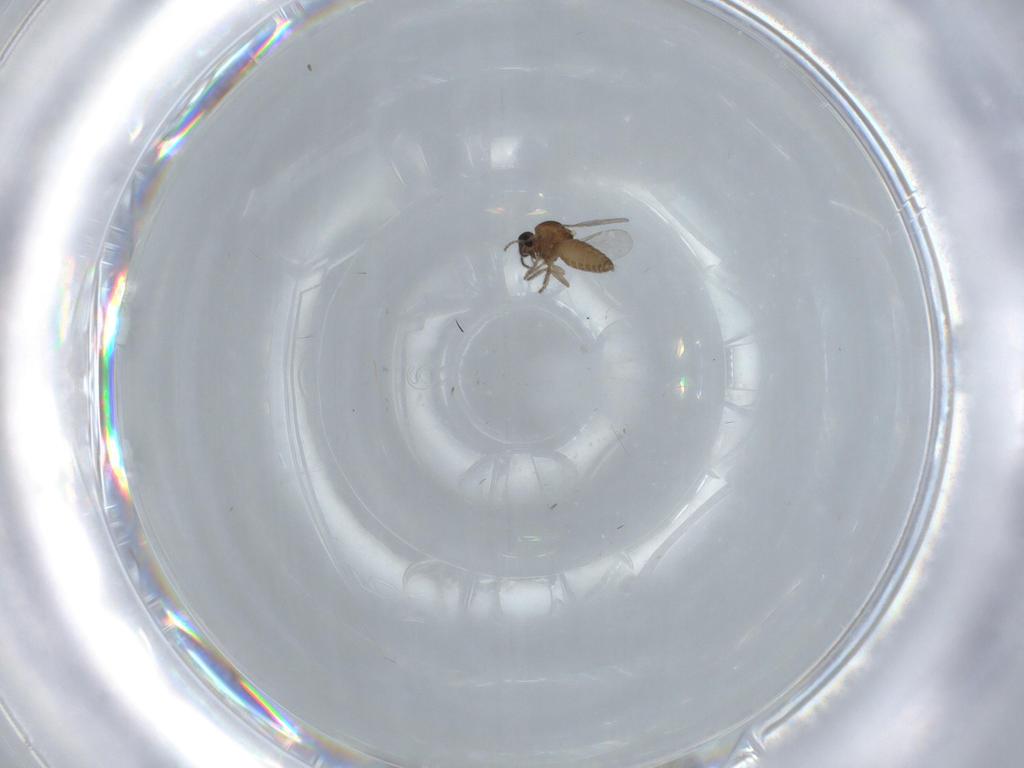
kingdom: Animalia
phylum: Arthropoda
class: Insecta
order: Diptera
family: Ceratopogonidae
